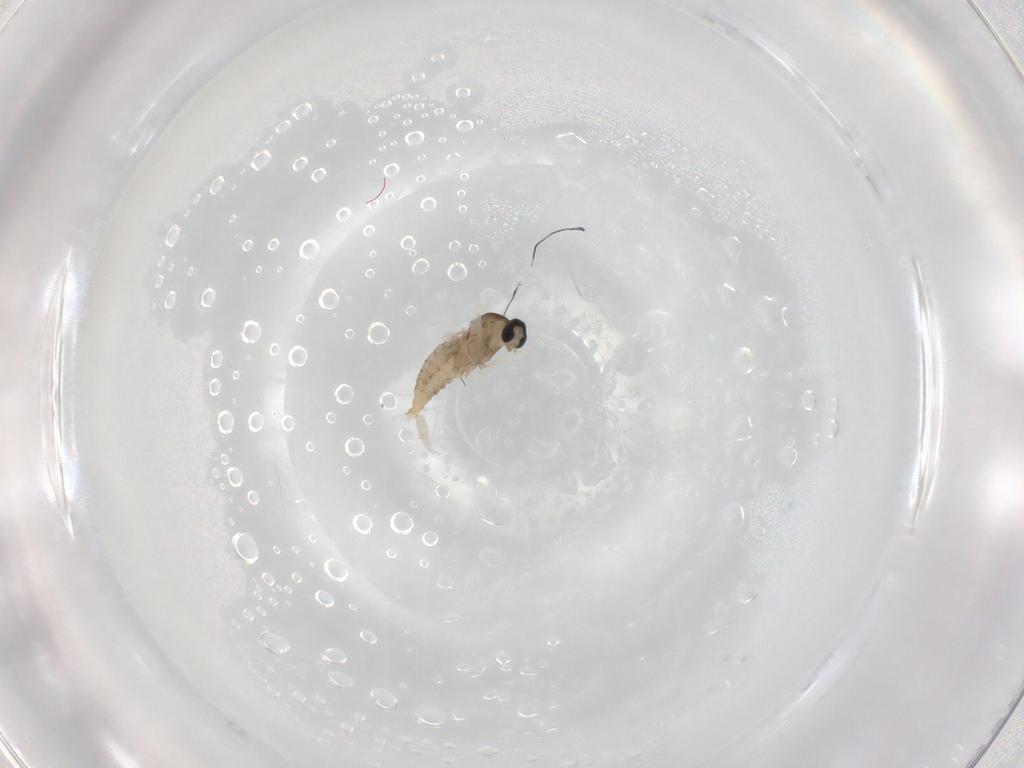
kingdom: Animalia
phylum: Arthropoda
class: Insecta
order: Diptera
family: Cecidomyiidae
